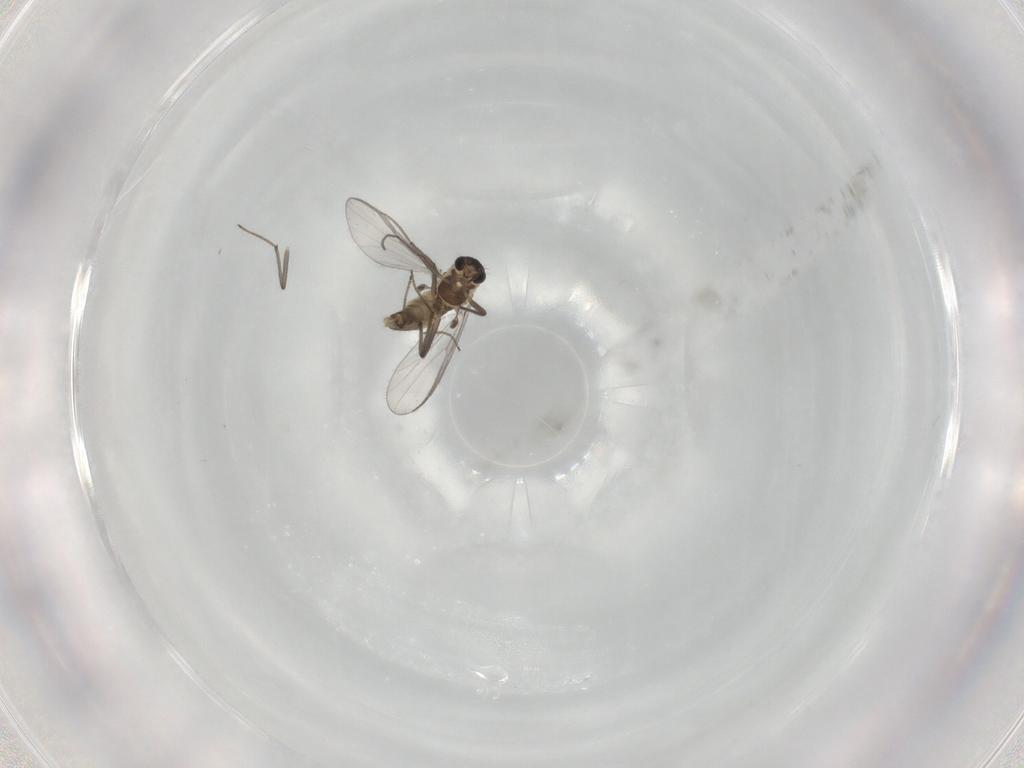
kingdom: Animalia
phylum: Arthropoda
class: Insecta
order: Diptera
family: Chironomidae
